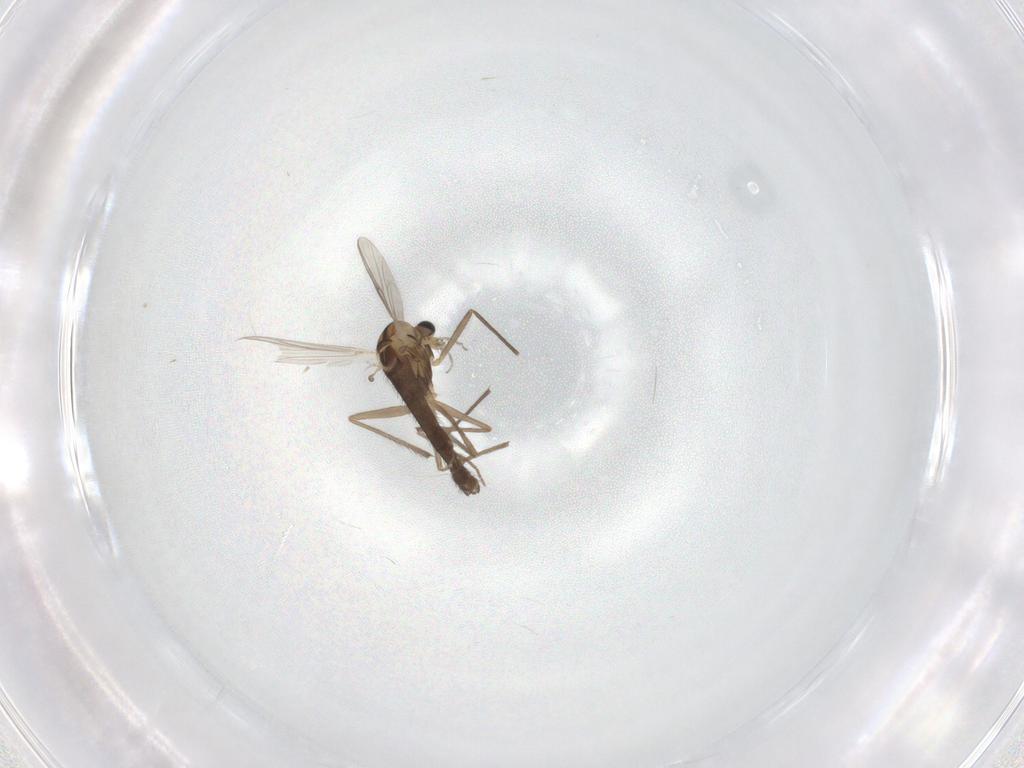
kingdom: Animalia
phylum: Arthropoda
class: Insecta
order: Diptera
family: Chironomidae
